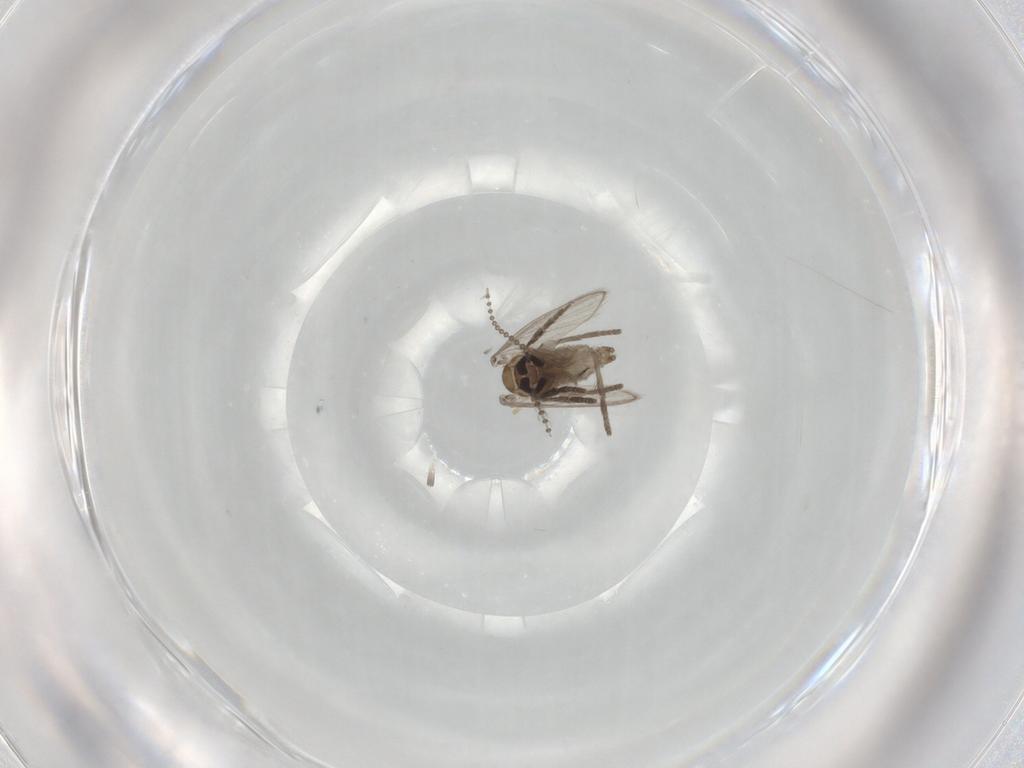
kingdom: Animalia
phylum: Arthropoda
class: Insecta
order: Diptera
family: Psychodidae
